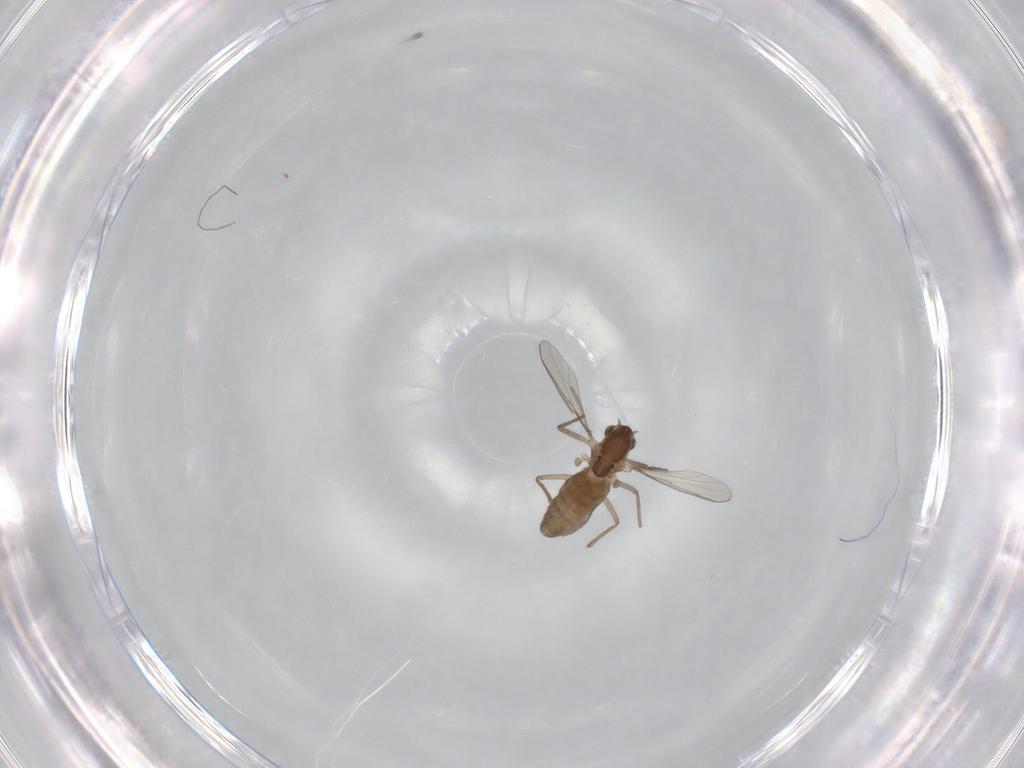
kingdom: Animalia
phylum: Arthropoda
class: Insecta
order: Diptera
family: Chironomidae
